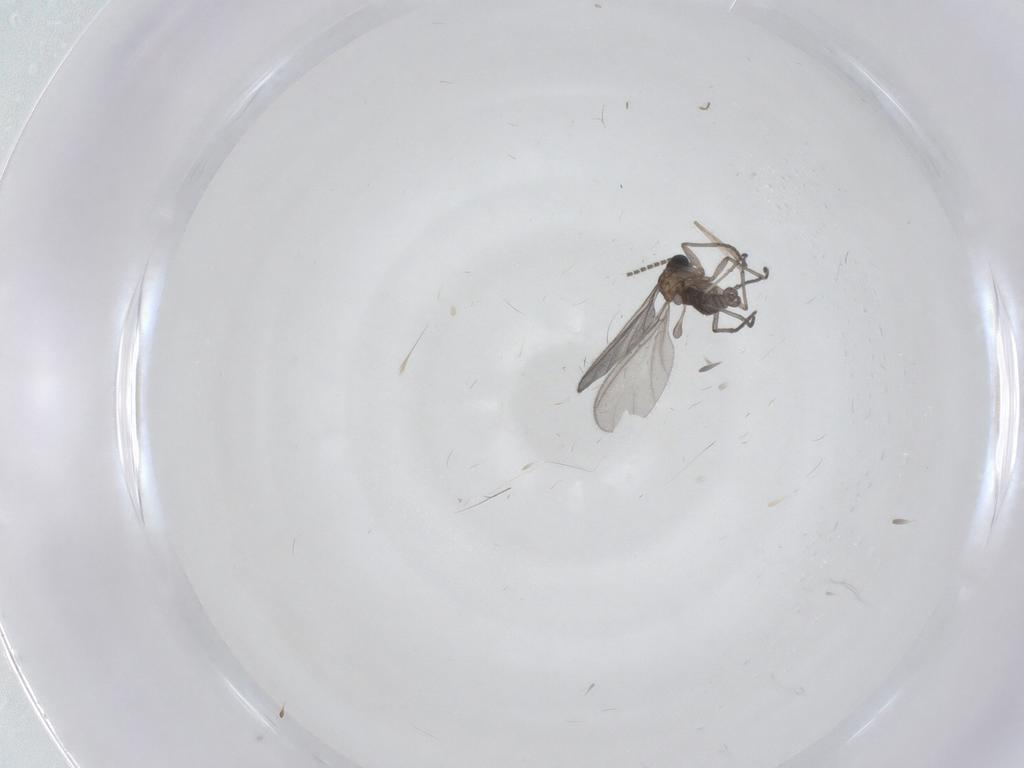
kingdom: Animalia
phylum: Arthropoda
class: Insecta
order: Diptera
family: Sciaridae
